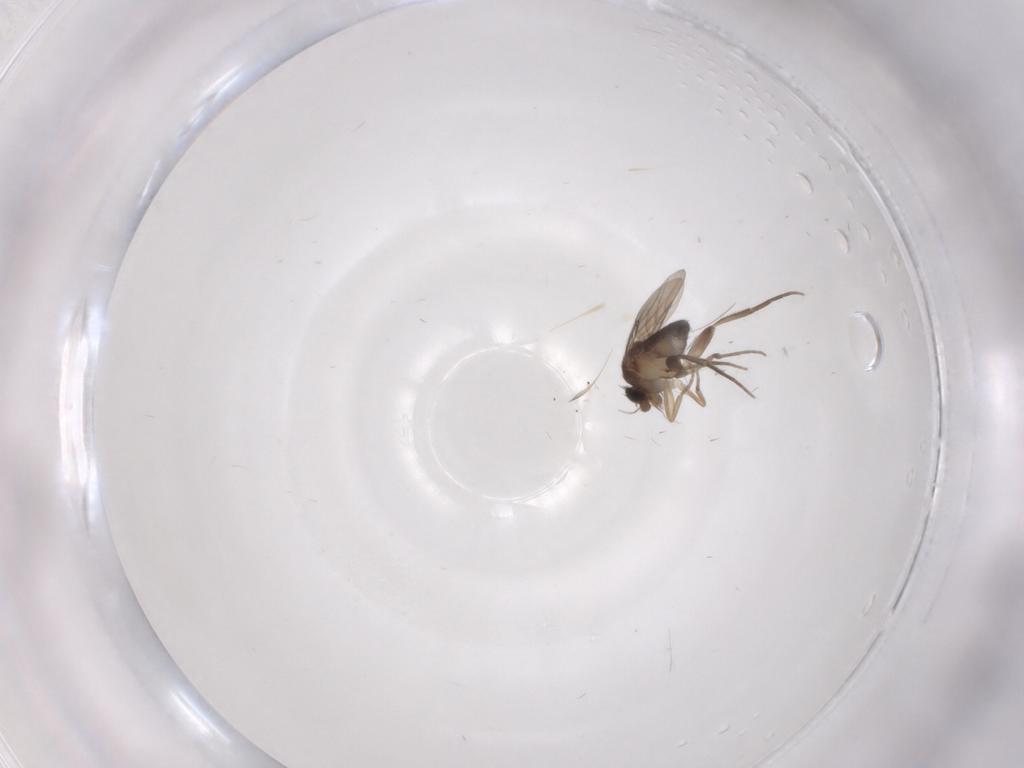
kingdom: Animalia
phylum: Arthropoda
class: Insecta
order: Diptera
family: Phoridae
